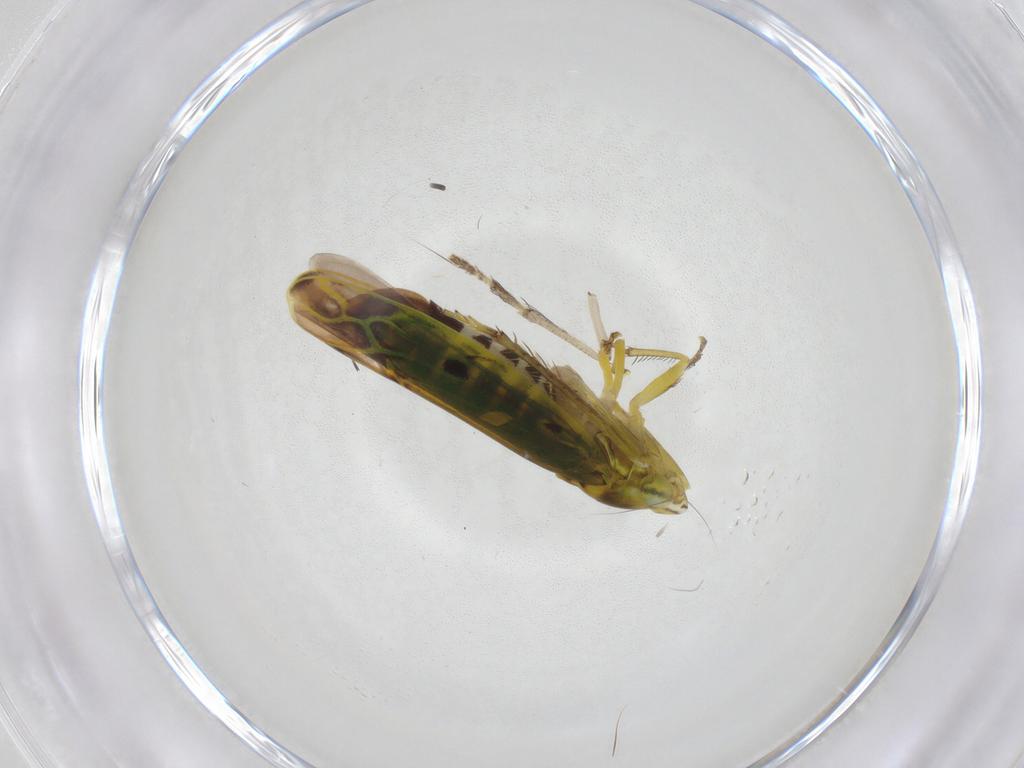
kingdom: Animalia
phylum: Arthropoda
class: Insecta
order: Hemiptera
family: Cicadellidae
